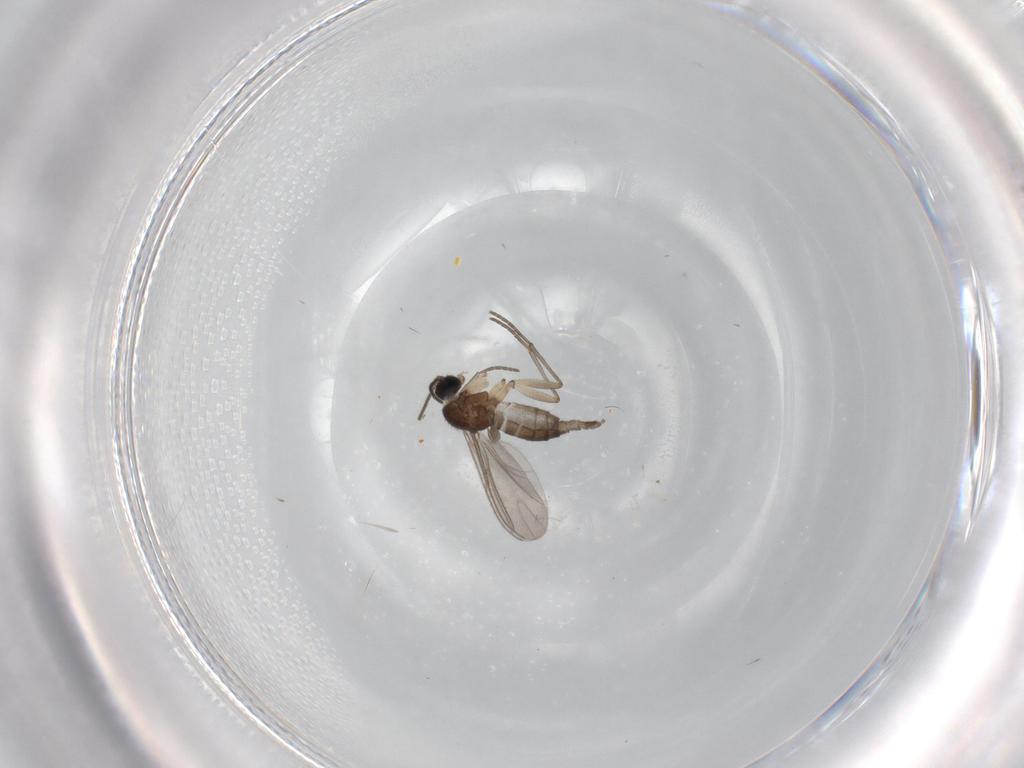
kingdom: Animalia
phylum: Arthropoda
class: Insecta
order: Diptera
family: Sciaridae
